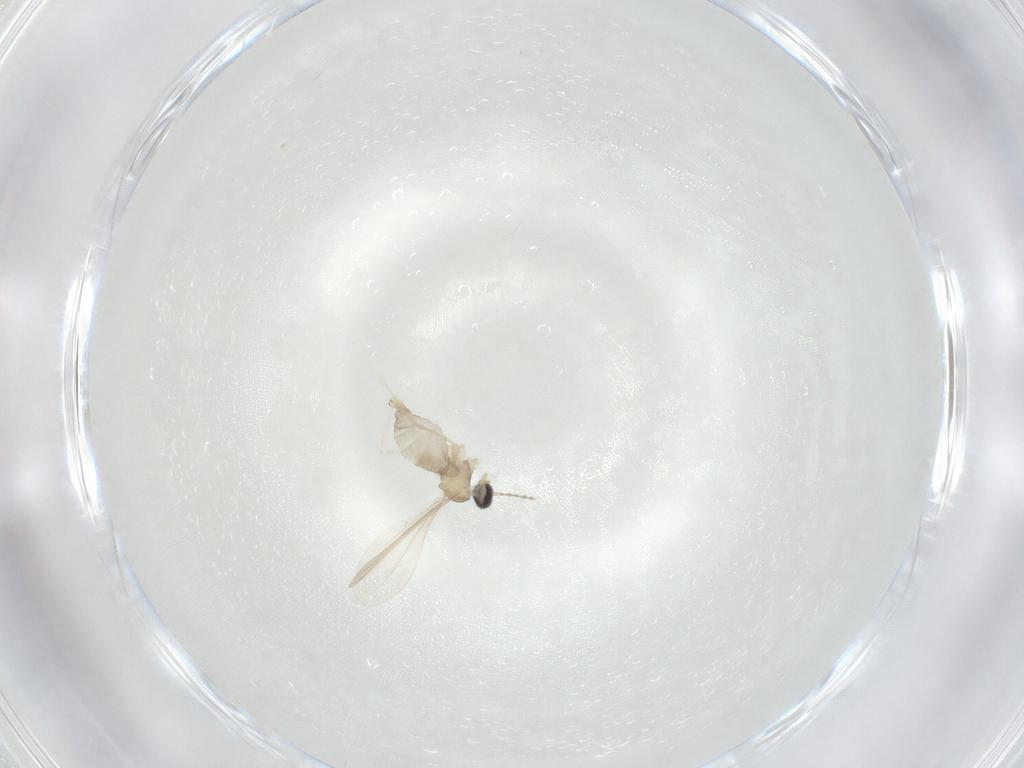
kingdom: Animalia
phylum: Arthropoda
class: Insecta
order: Diptera
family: Cecidomyiidae
